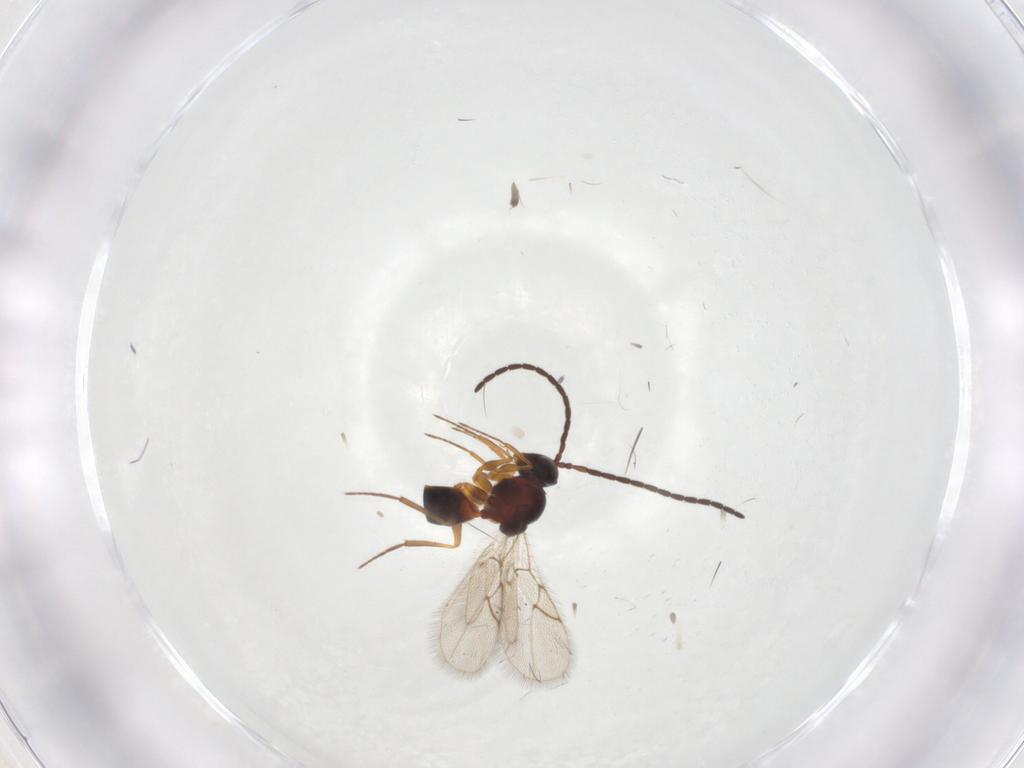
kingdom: Animalia
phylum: Arthropoda
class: Insecta
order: Hymenoptera
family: Figitidae
